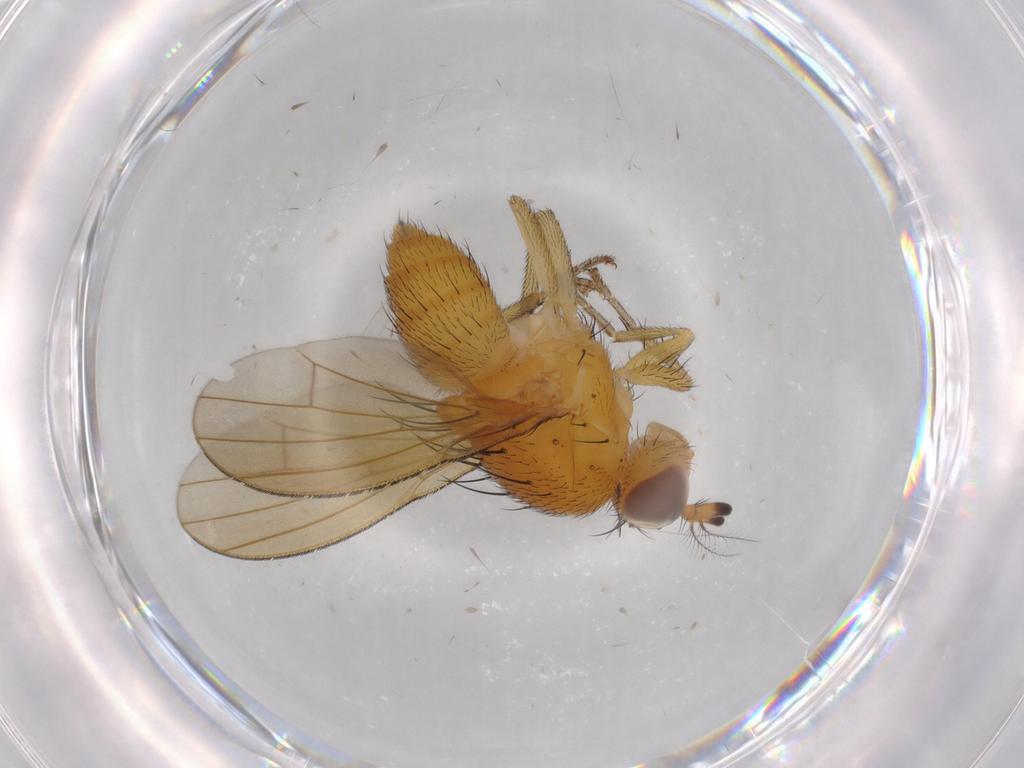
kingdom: Animalia
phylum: Arthropoda
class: Insecta
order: Diptera
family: Lauxaniidae
